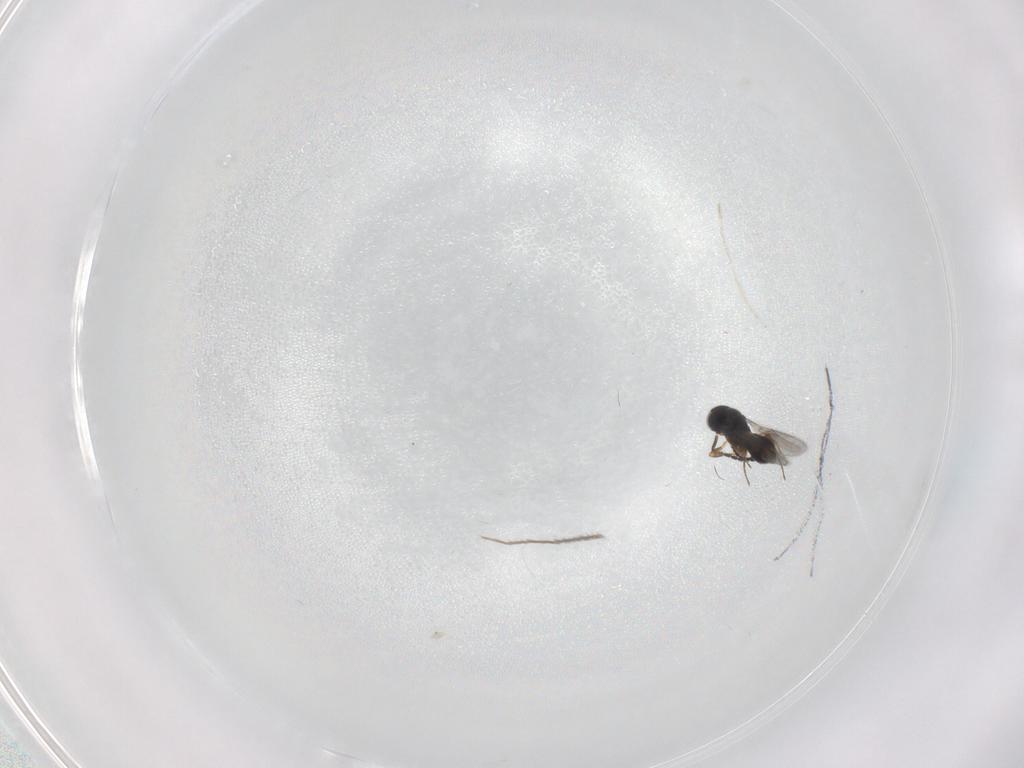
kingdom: Animalia
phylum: Arthropoda
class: Insecta
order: Hymenoptera
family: Scelionidae
